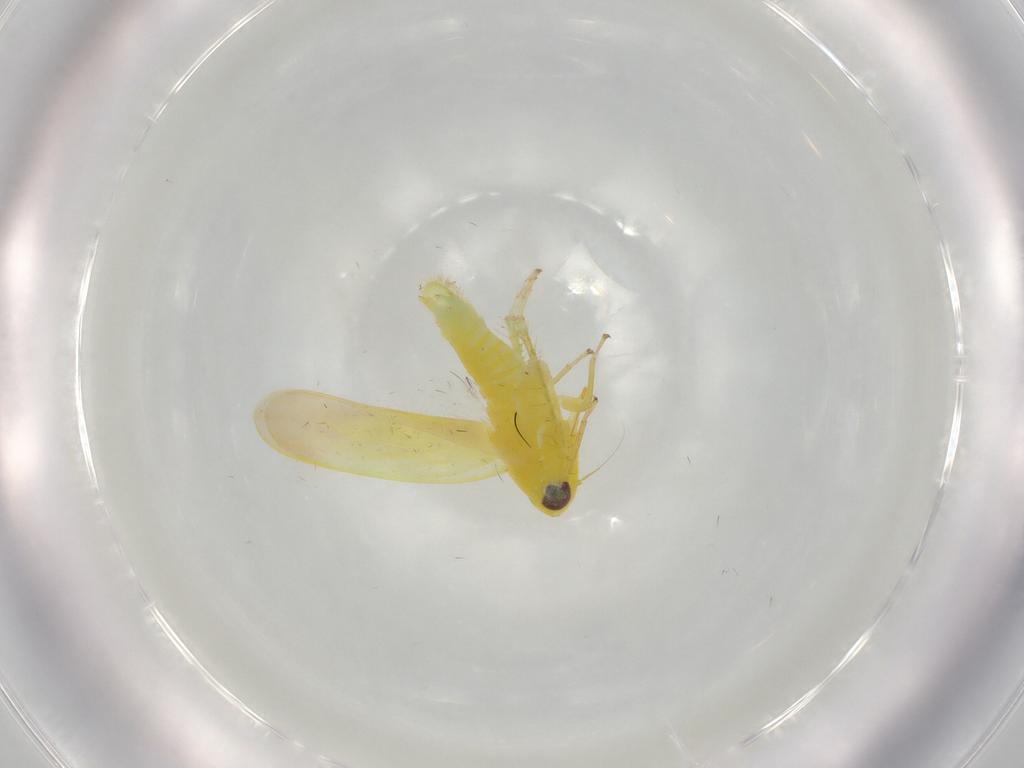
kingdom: Animalia
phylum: Arthropoda
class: Insecta
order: Hemiptera
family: Cicadellidae
